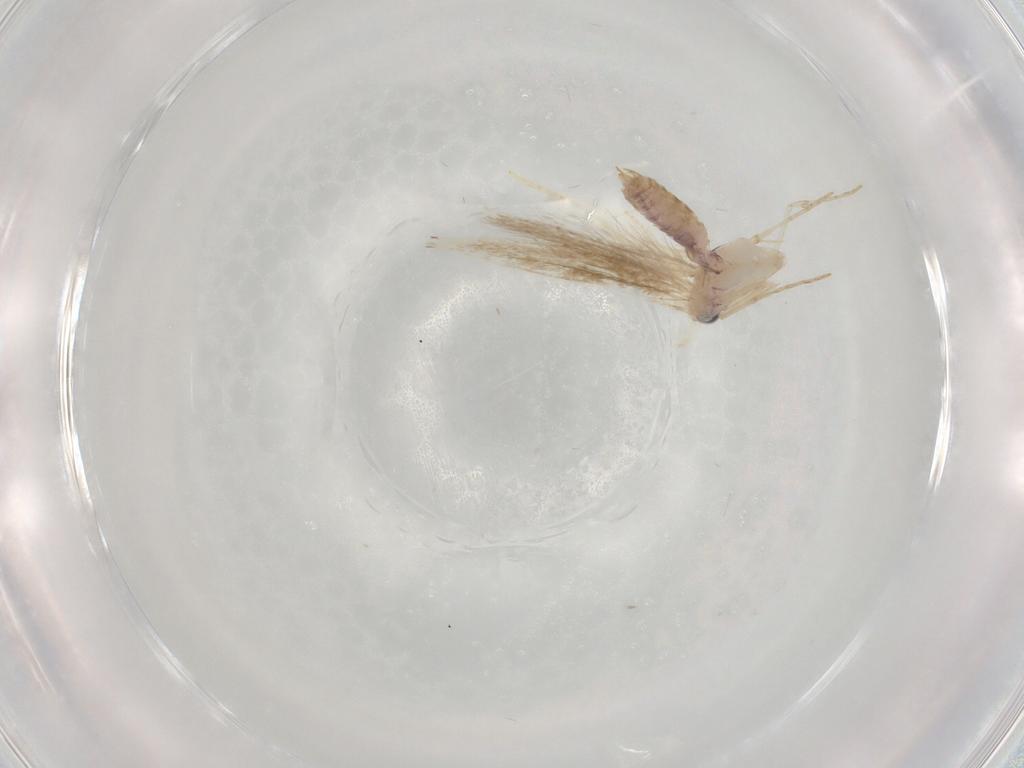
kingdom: Animalia
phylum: Arthropoda
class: Insecta
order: Lepidoptera
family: Lyonetiidae
